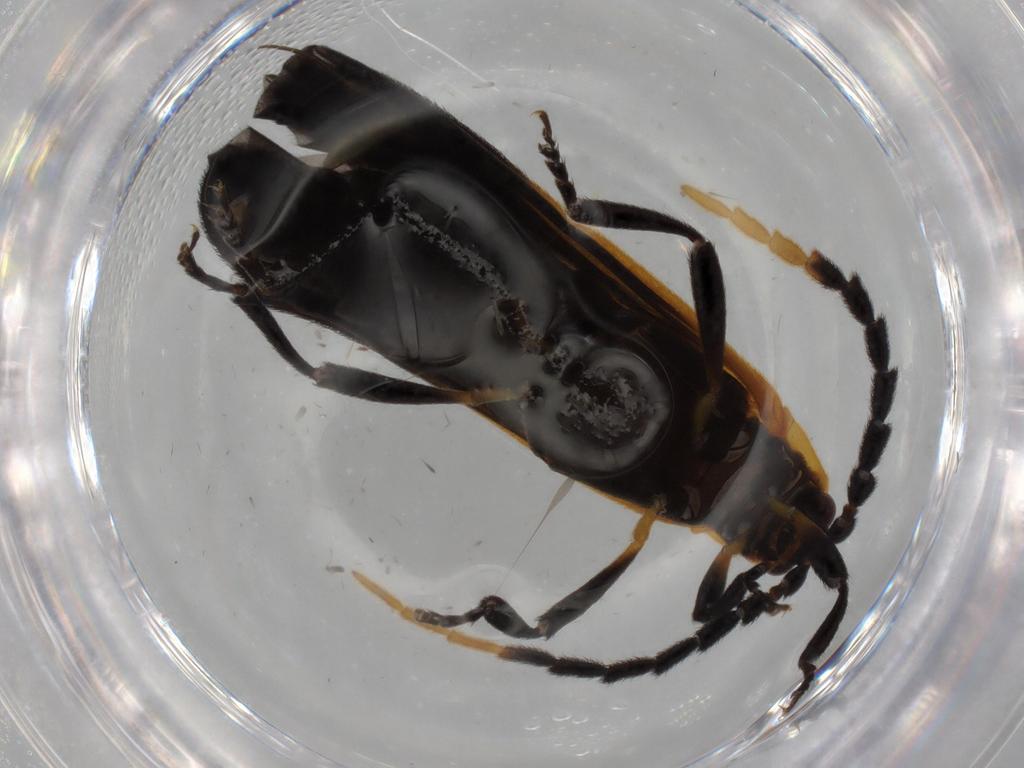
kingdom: Animalia
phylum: Arthropoda
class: Insecta
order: Coleoptera
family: Lycidae
